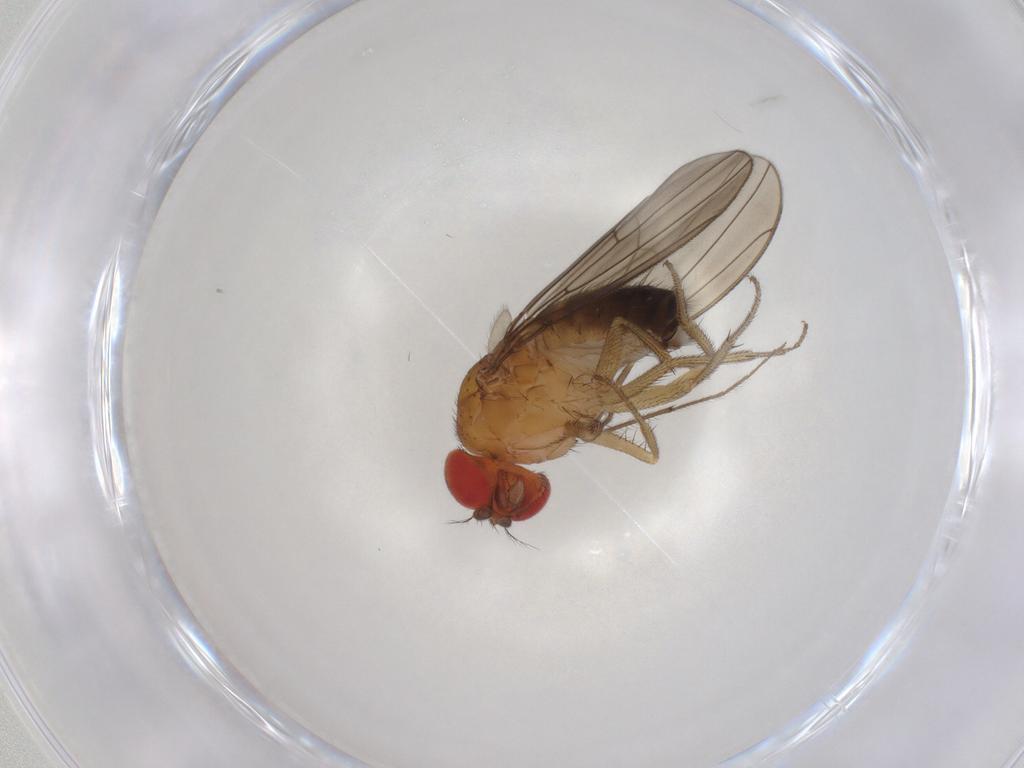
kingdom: Animalia
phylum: Arthropoda
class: Insecta
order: Diptera
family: Drosophilidae
